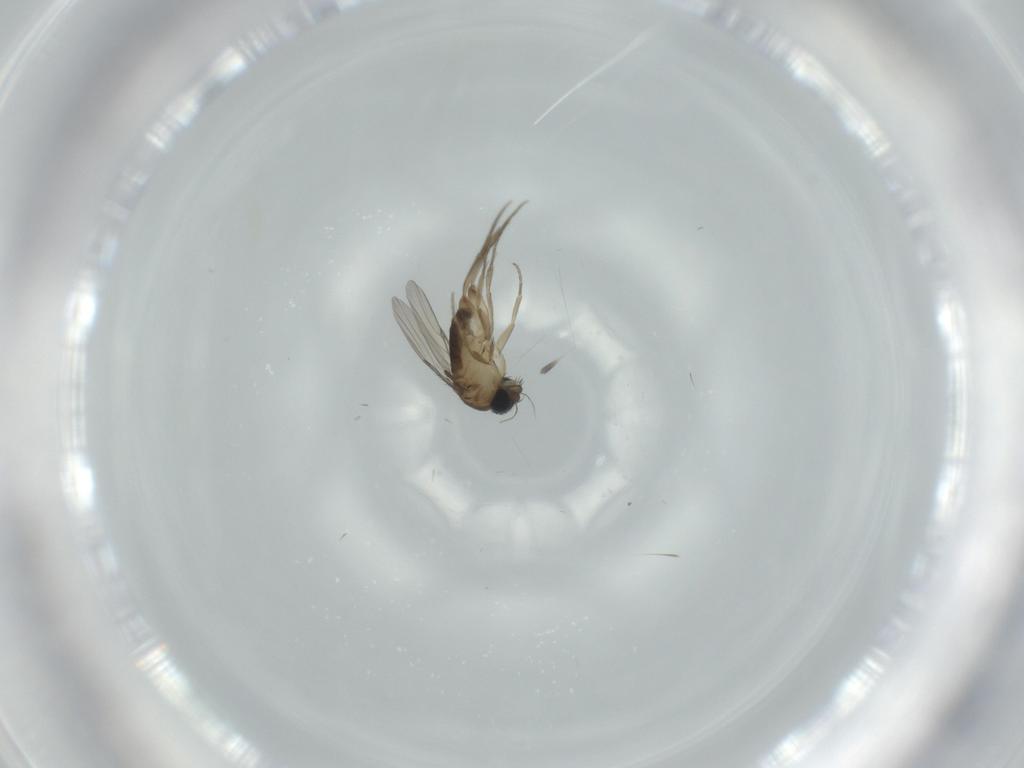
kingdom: Animalia
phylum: Arthropoda
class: Insecta
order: Diptera
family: Phoridae
